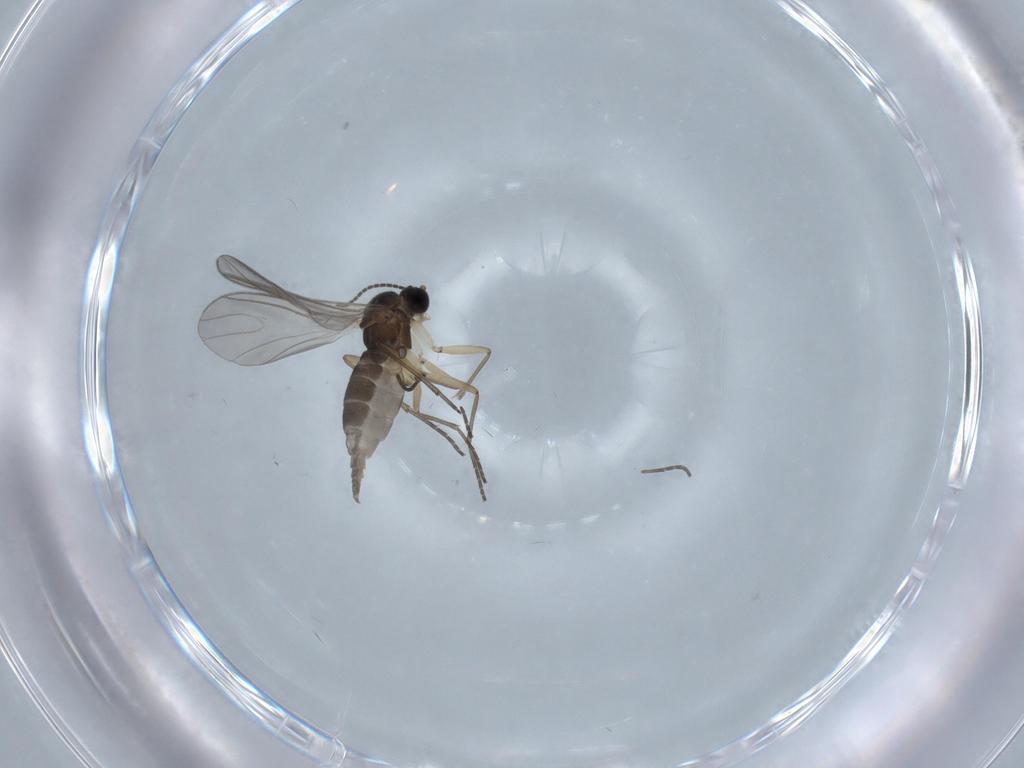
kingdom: Animalia
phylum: Arthropoda
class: Insecta
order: Diptera
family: Sciaridae
